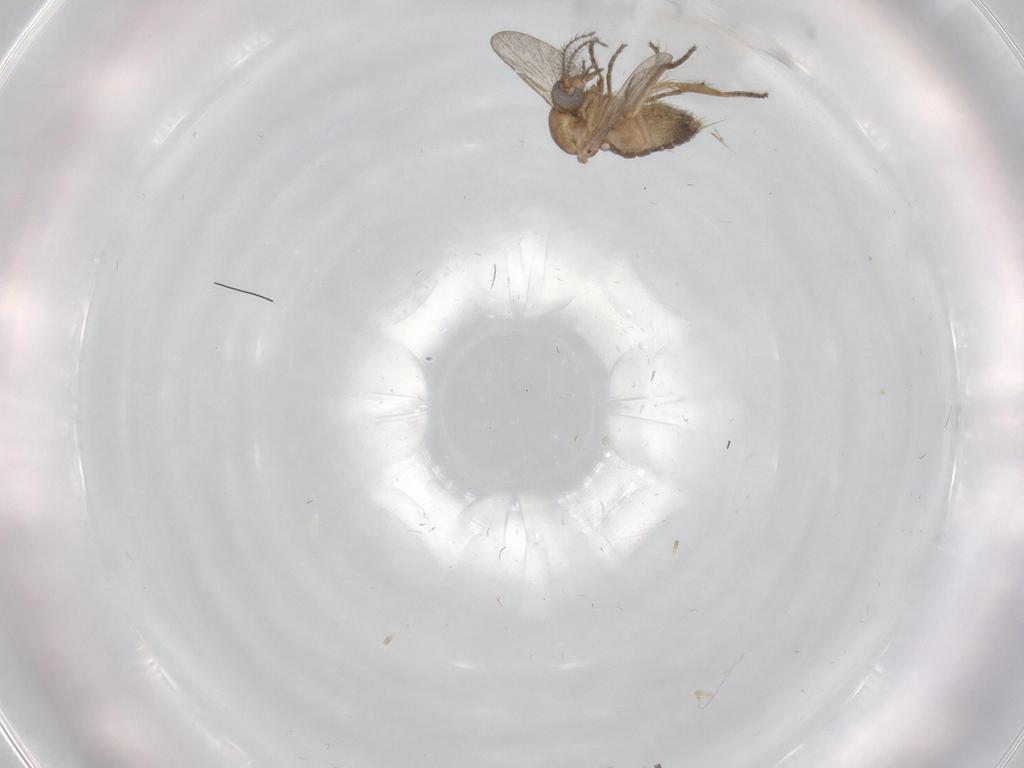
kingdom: Animalia
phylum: Arthropoda
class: Insecta
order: Diptera
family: Ceratopogonidae
